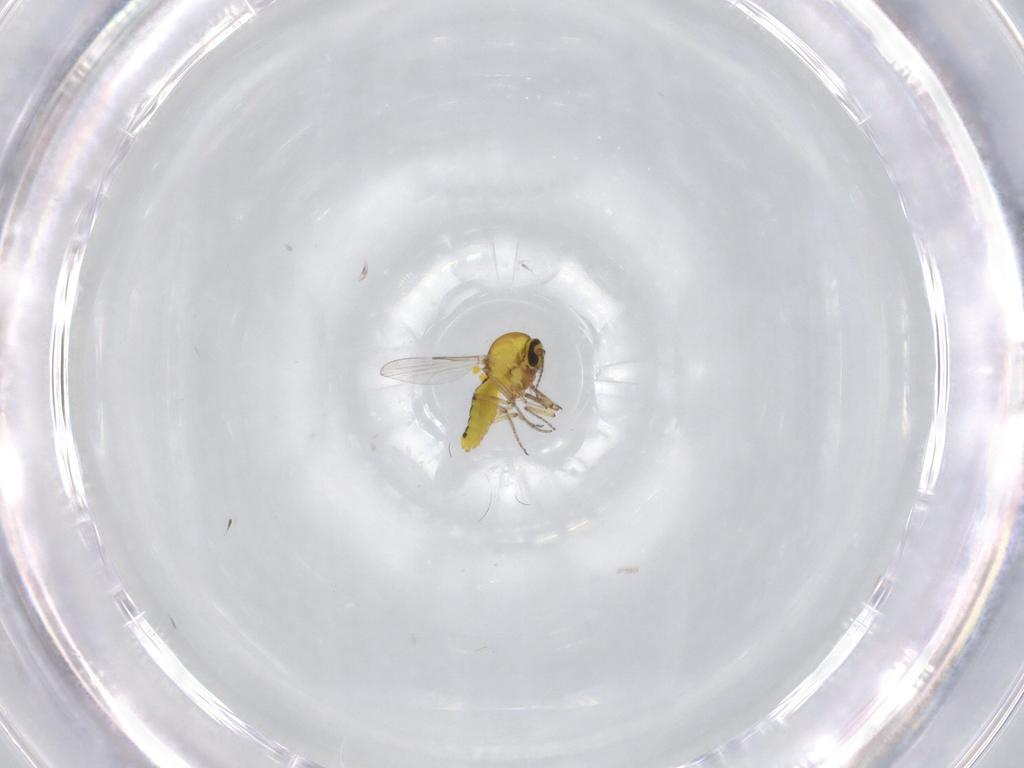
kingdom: Animalia
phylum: Arthropoda
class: Insecta
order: Diptera
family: Ceratopogonidae
